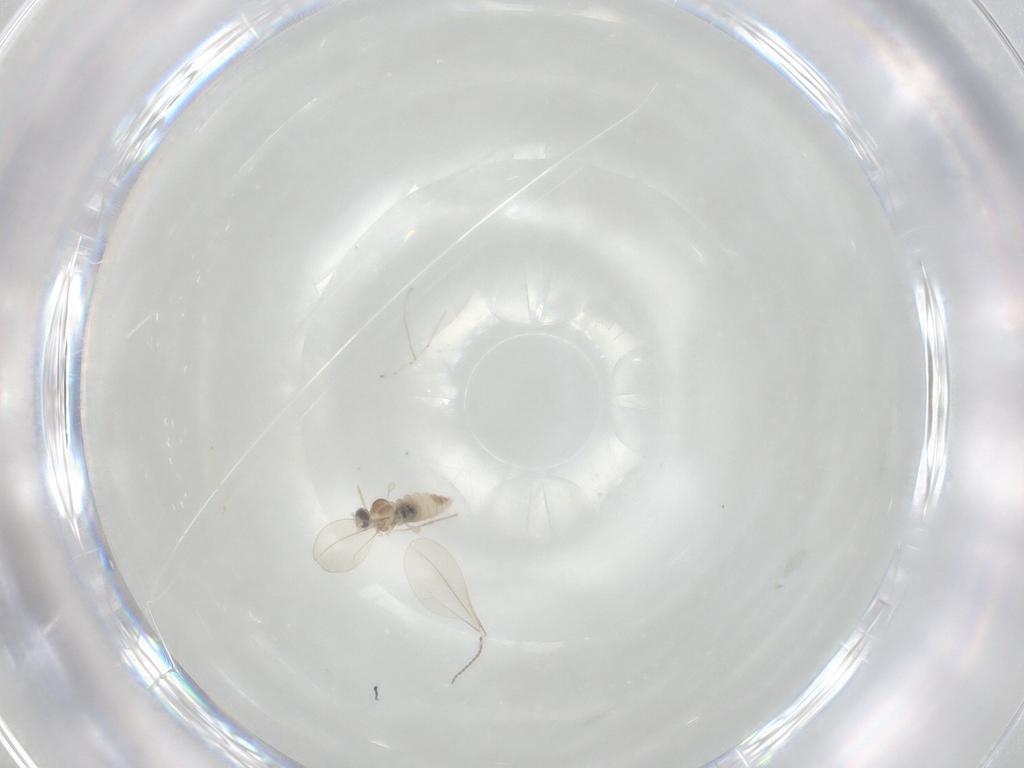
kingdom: Animalia
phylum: Arthropoda
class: Insecta
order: Diptera
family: Cecidomyiidae
